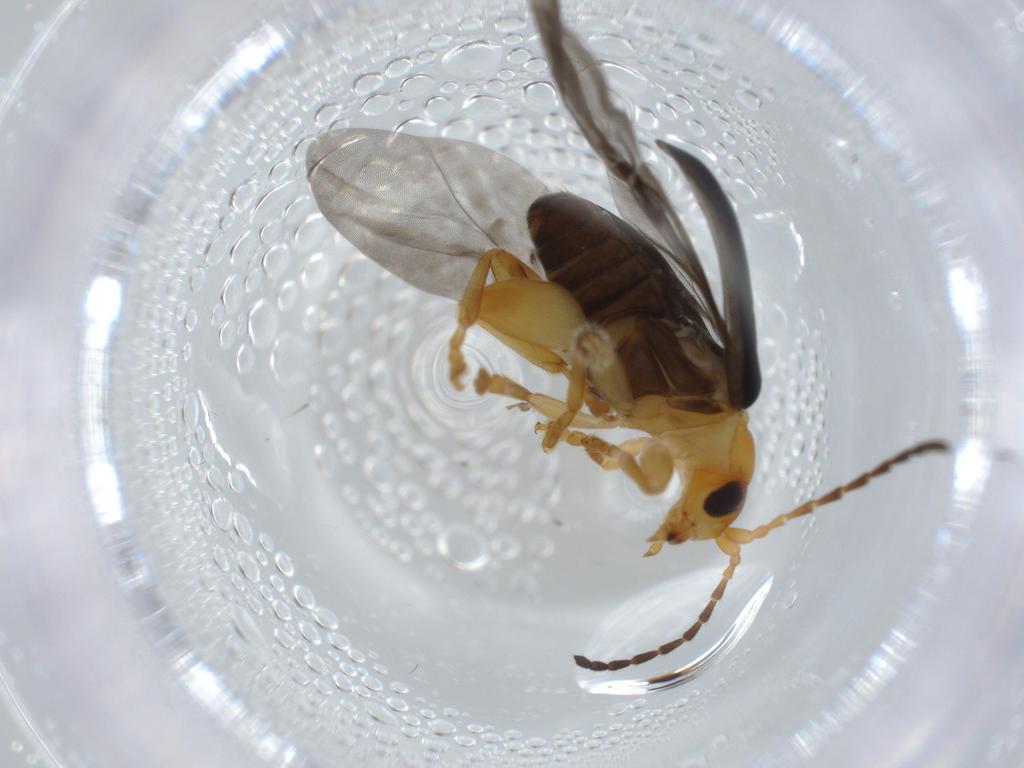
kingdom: Animalia
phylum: Arthropoda
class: Insecta
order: Coleoptera
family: Chrysomelidae
